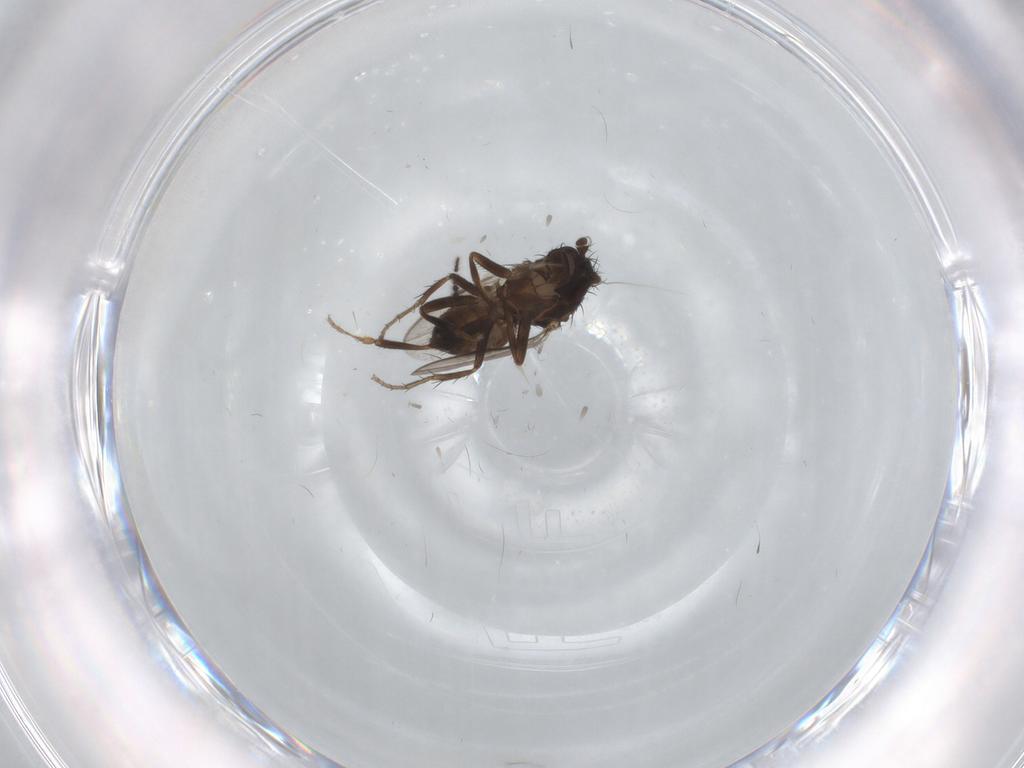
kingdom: Animalia
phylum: Arthropoda
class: Insecta
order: Diptera
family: Sphaeroceridae
